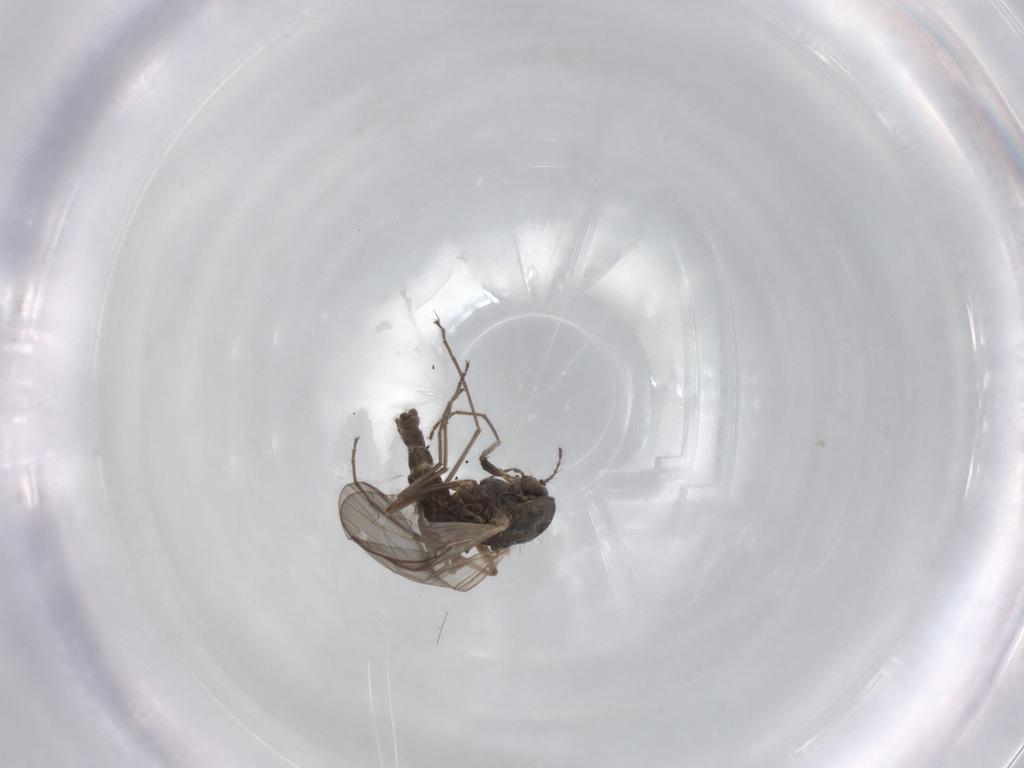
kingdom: Animalia
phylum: Arthropoda
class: Insecta
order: Diptera
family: Chironomidae
